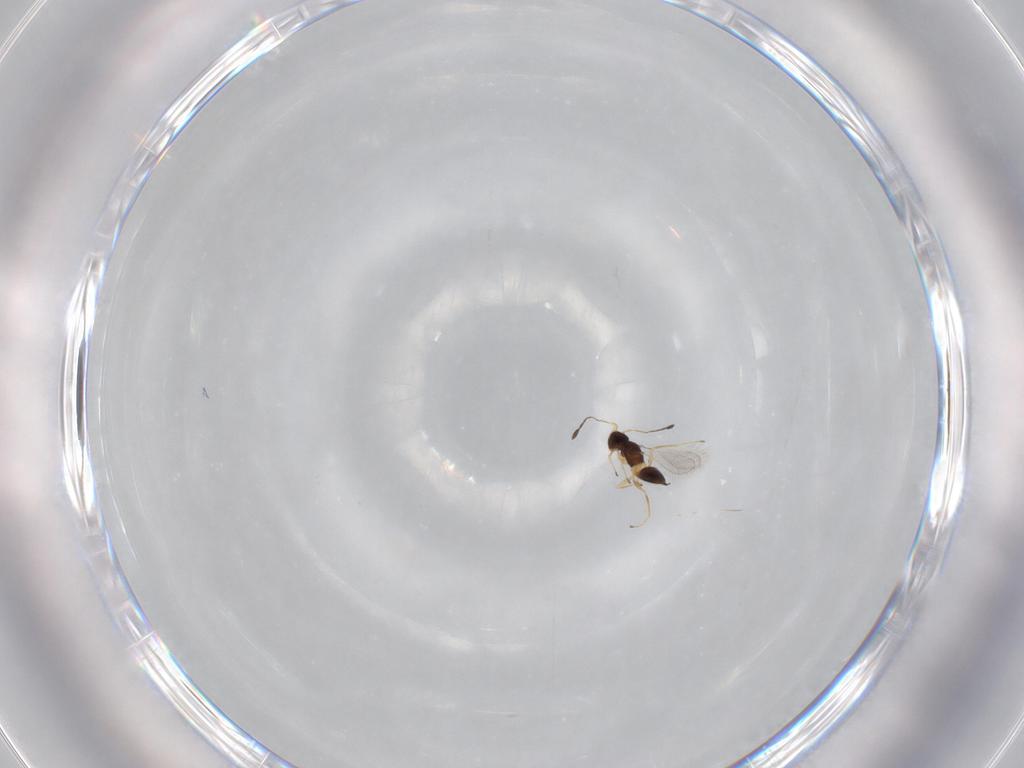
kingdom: Animalia
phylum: Arthropoda
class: Insecta
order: Hymenoptera
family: Mymaridae
